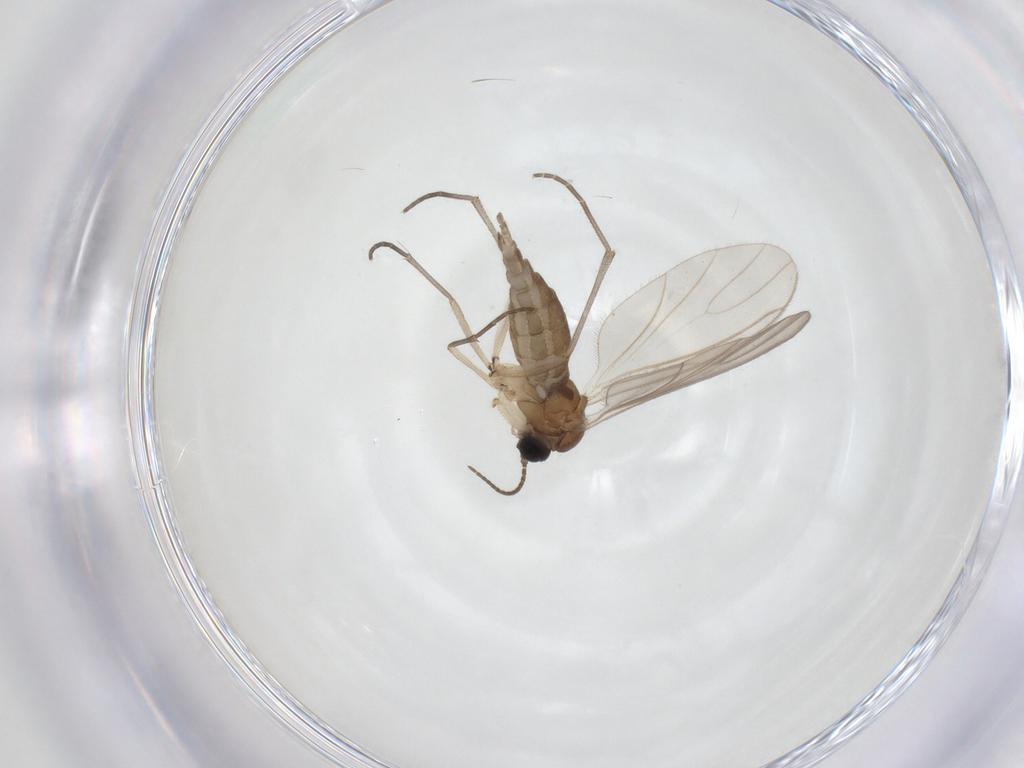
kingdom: Animalia
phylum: Arthropoda
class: Insecta
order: Diptera
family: Sciaridae
